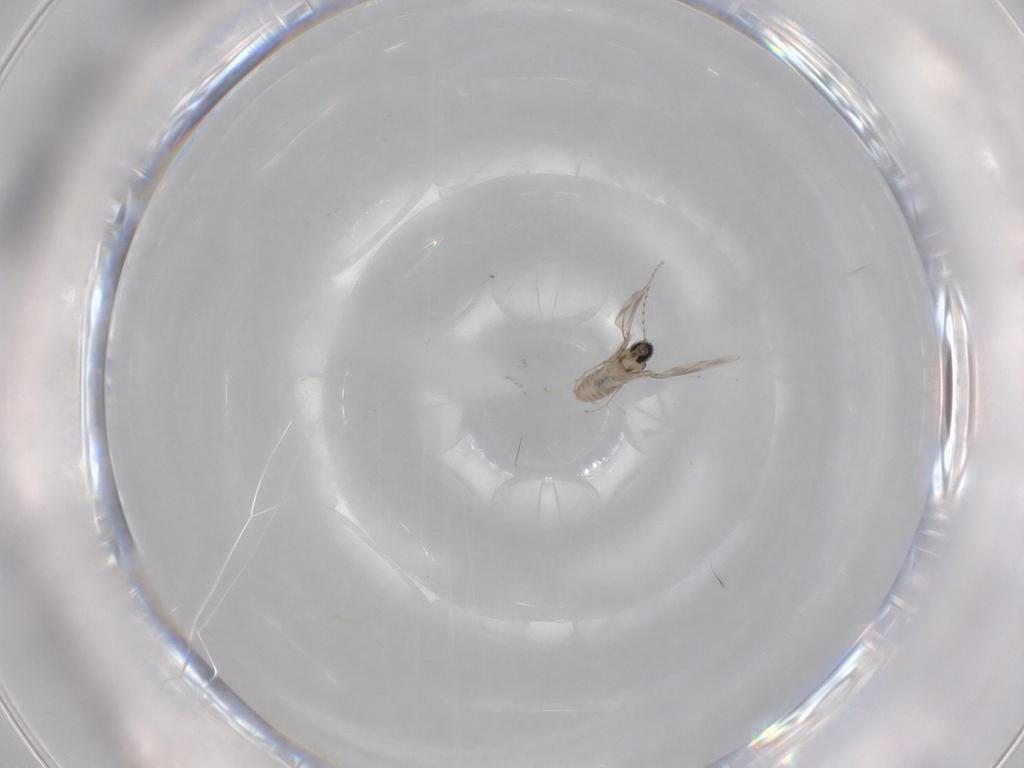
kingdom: Animalia
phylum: Arthropoda
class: Insecta
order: Diptera
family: Cecidomyiidae
